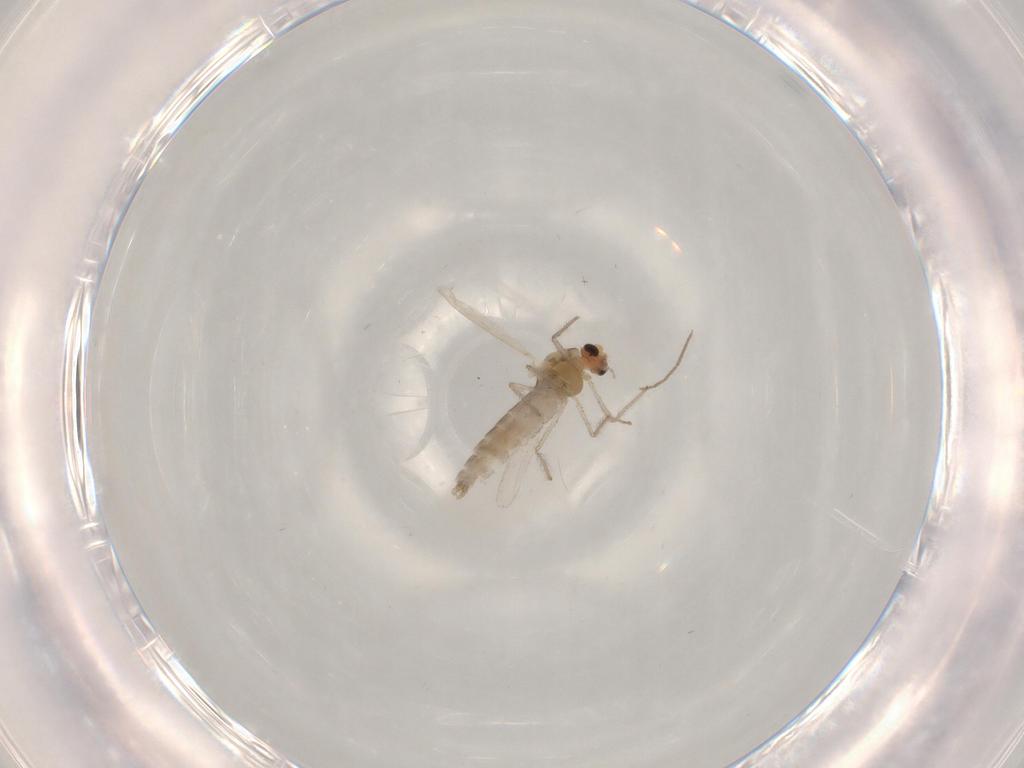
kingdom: Animalia
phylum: Arthropoda
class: Insecta
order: Diptera
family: Chironomidae
